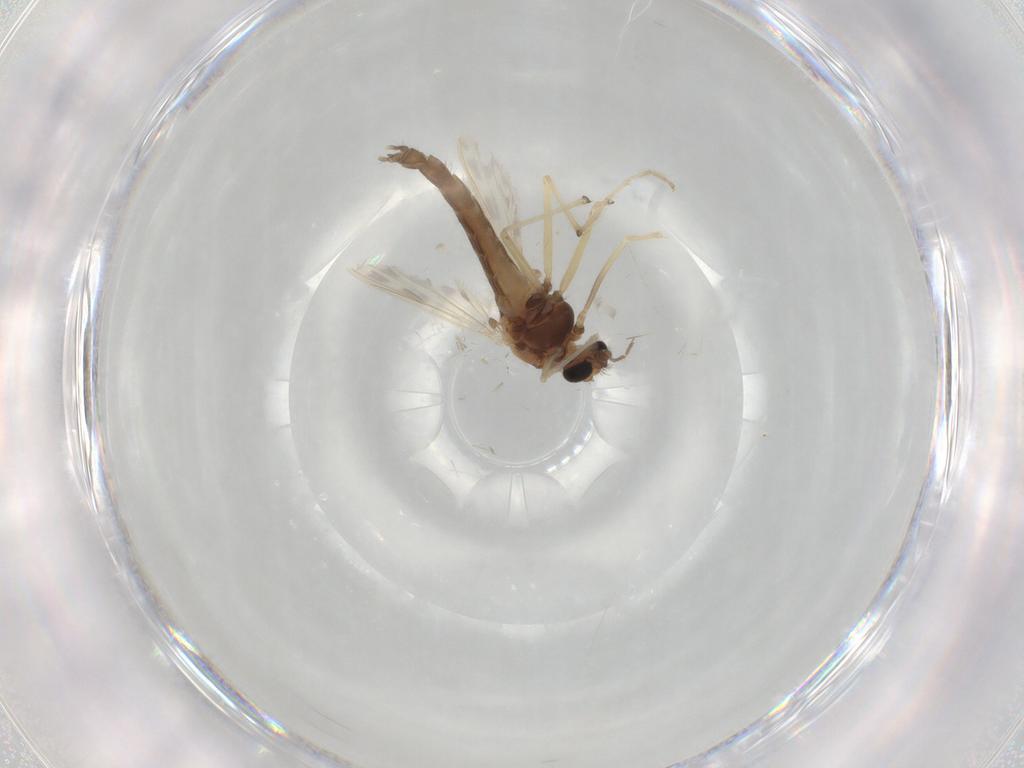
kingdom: Animalia
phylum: Arthropoda
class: Insecta
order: Diptera
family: Chironomidae
